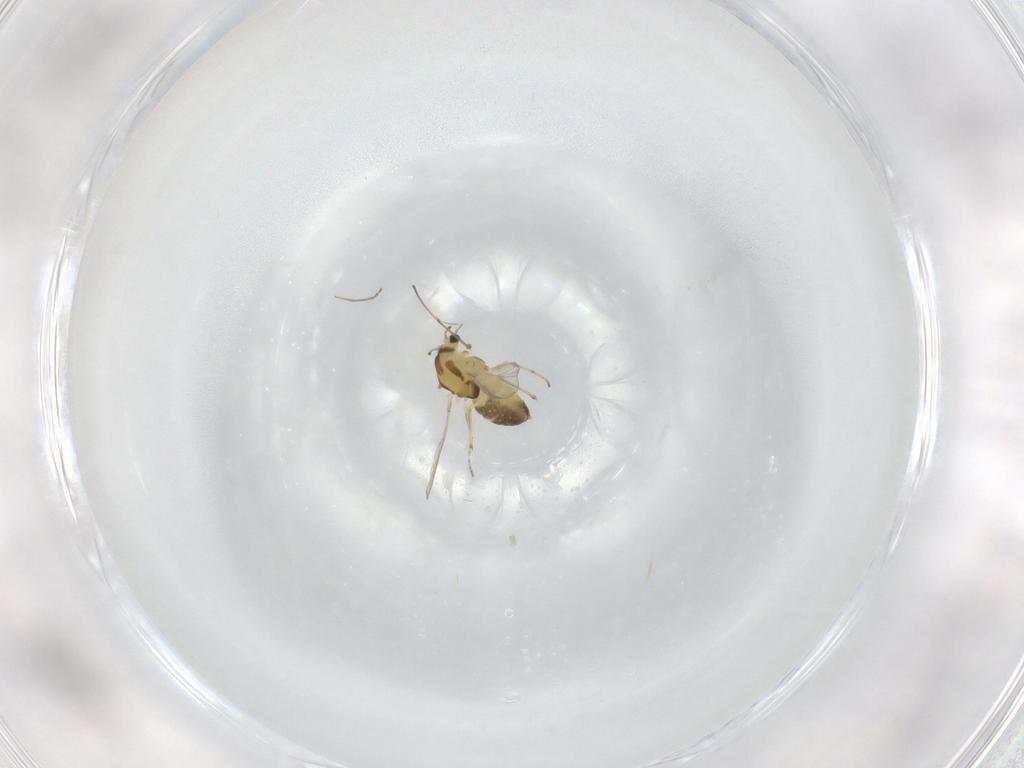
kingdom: Animalia
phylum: Arthropoda
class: Insecta
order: Diptera
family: Chironomidae
